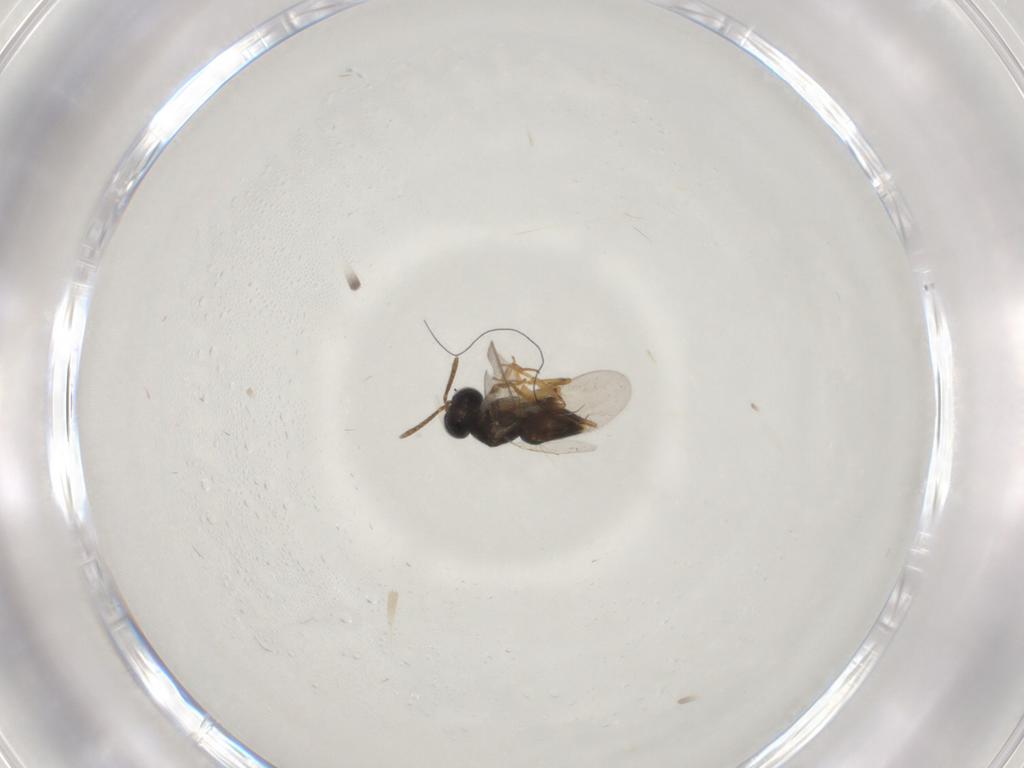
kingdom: Animalia
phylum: Arthropoda
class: Insecta
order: Hymenoptera
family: Encyrtidae
